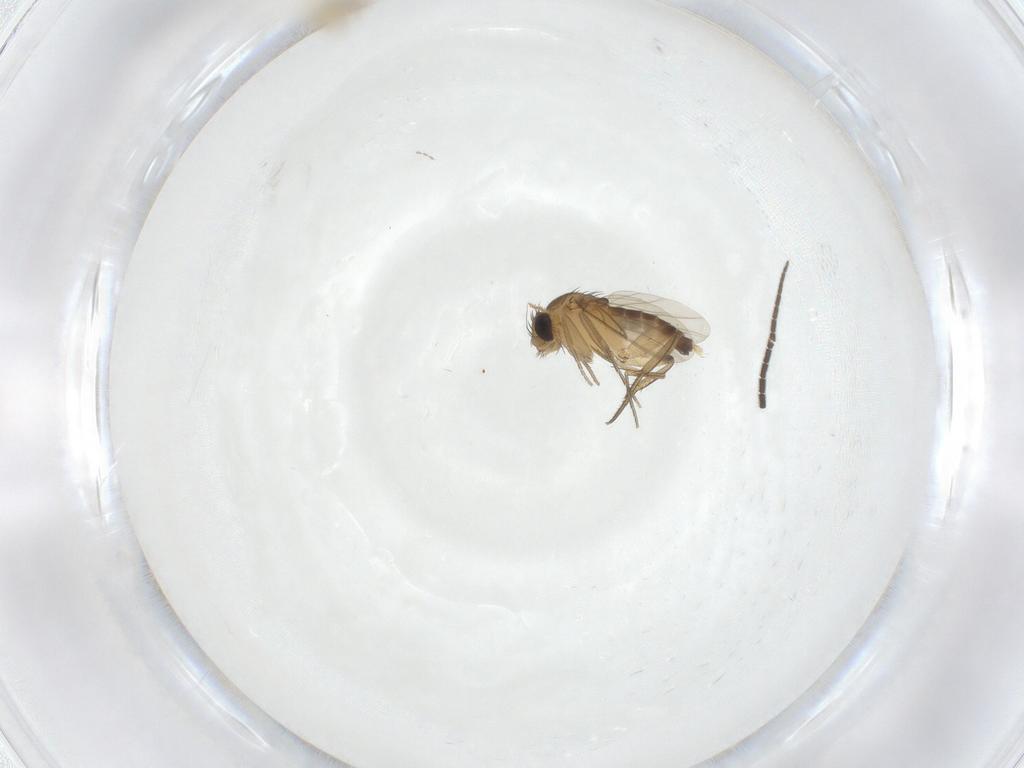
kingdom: Animalia
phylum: Arthropoda
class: Insecta
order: Diptera
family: Cecidomyiidae
